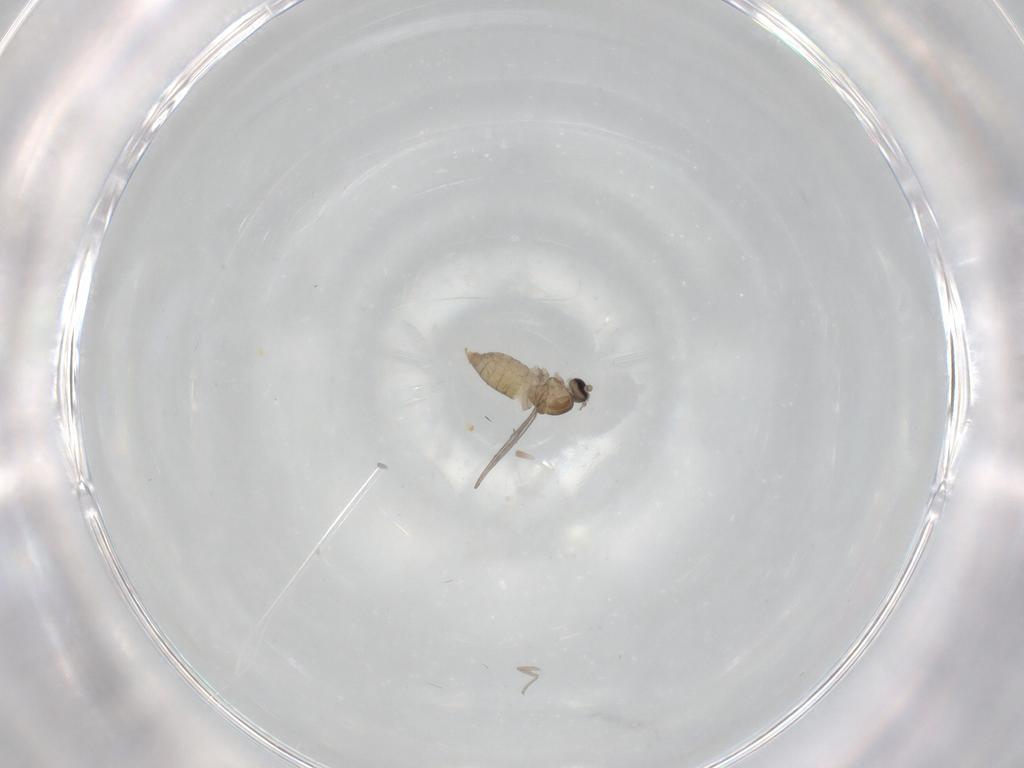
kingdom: Animalia
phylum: Arthropoda
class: Insecta
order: Diptera
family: Cecidomyiidae
